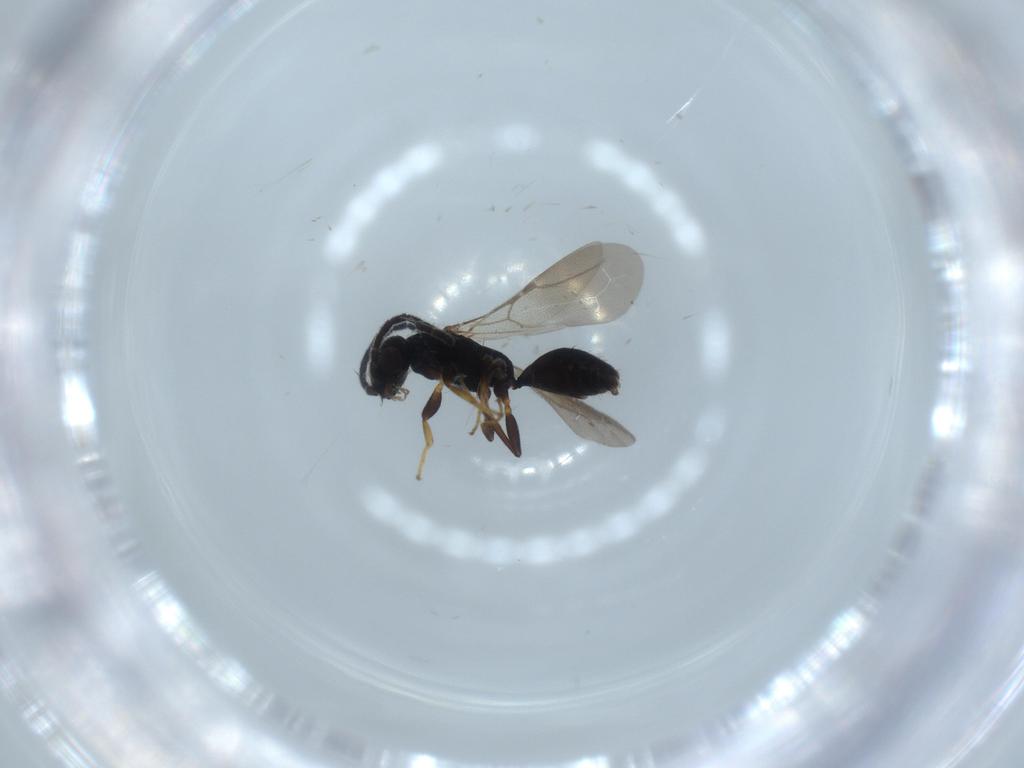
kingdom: Animalia
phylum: Arthropoda
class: Insecta
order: Hymenoptera
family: Bethylidae
